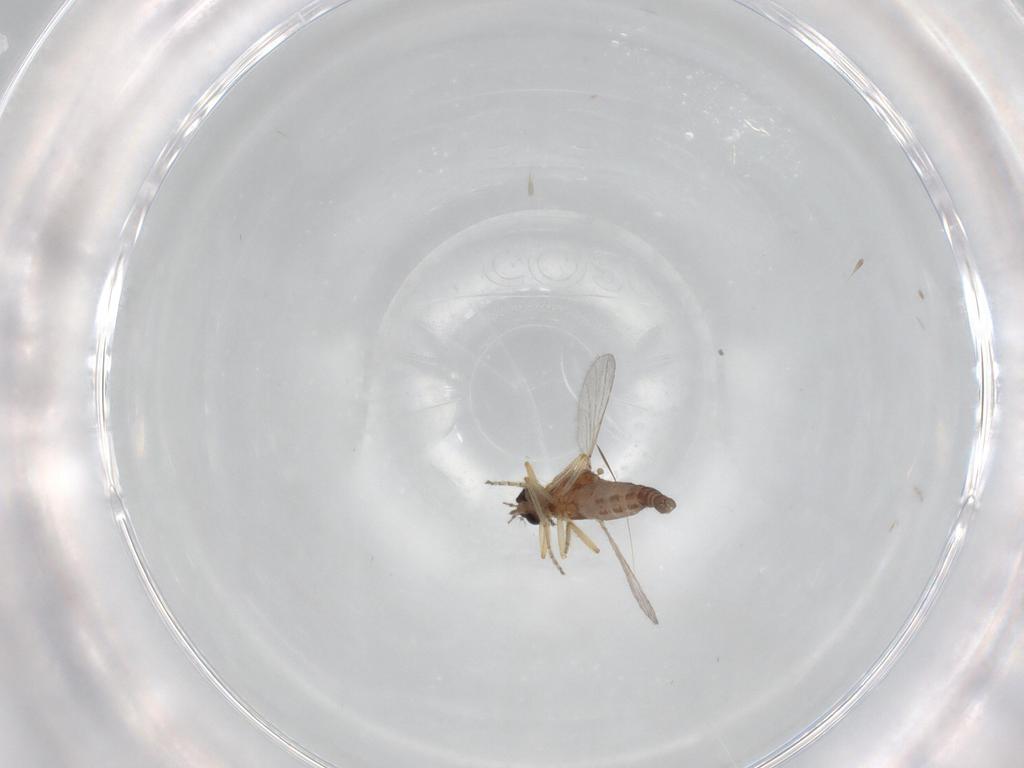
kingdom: Animalia
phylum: Arthropoda
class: Insecta
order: Diptera
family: Ceratopogonidae
